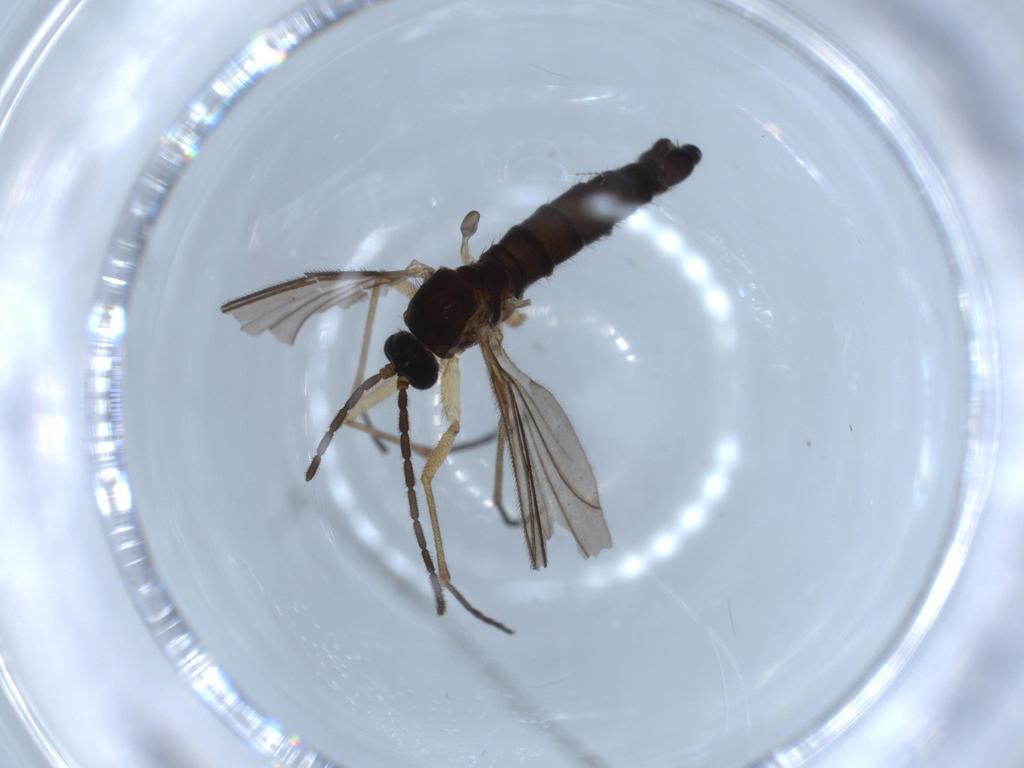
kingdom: Animalia
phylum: Arthropoda
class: Insecta
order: Diptera
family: Sciaridae
